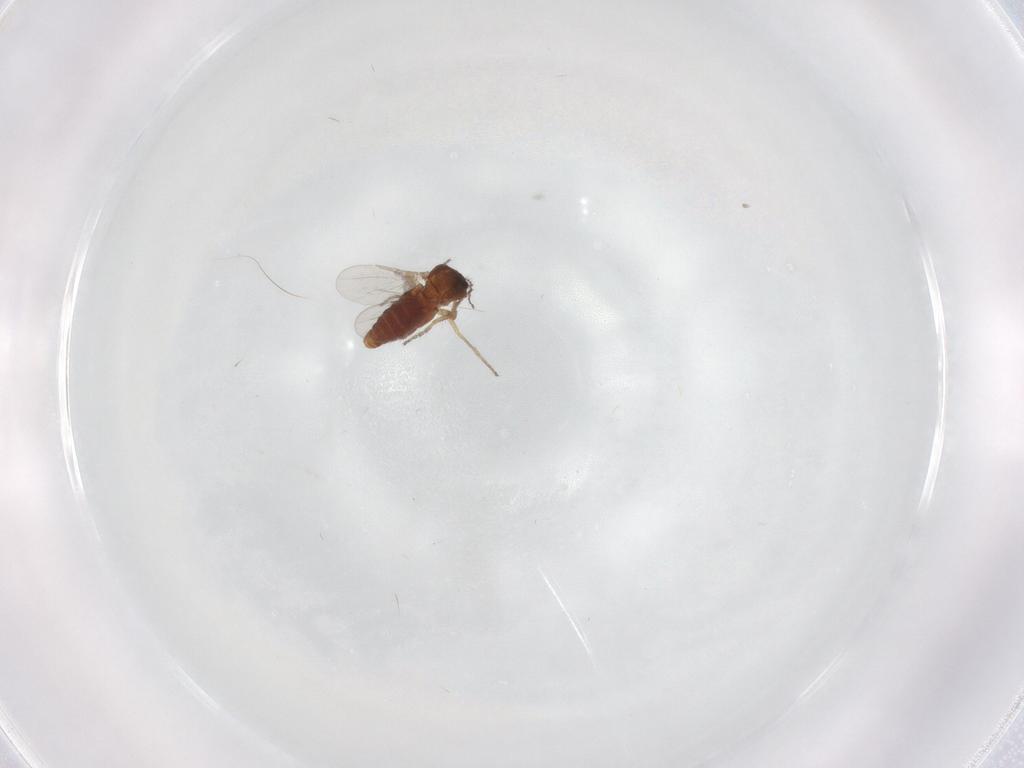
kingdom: Animalia
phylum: Arthropoda
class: Insecta
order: Diptera
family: Ceratopogonidae
